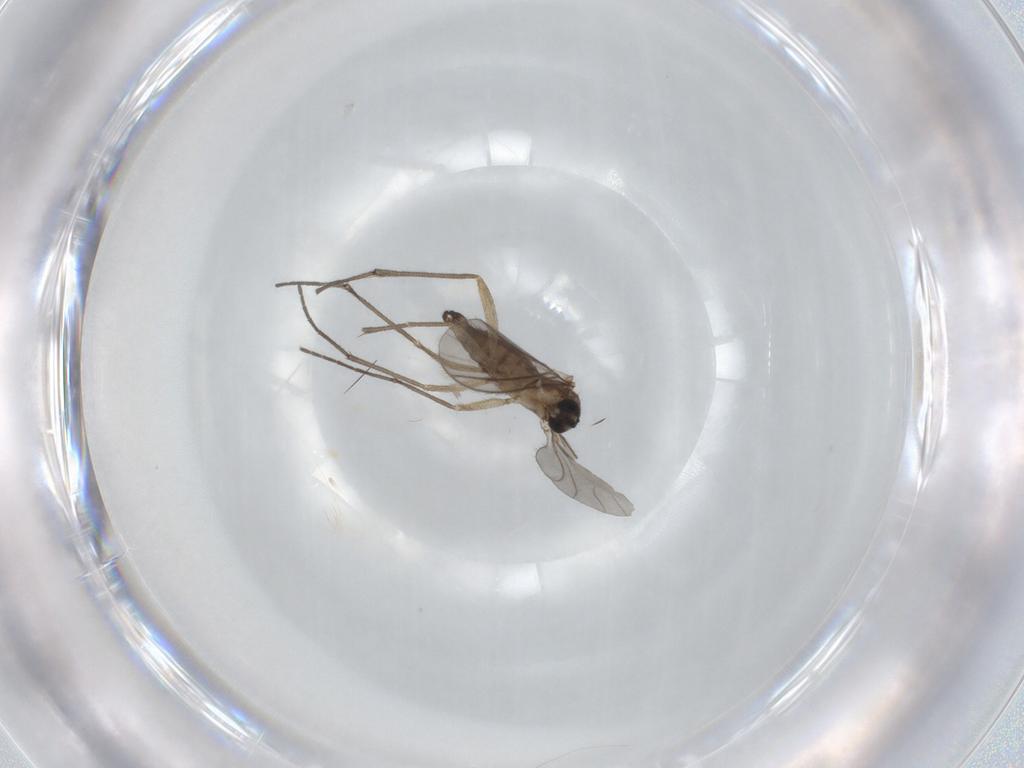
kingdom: Animalia
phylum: Arthropoda
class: Insecta
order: Diptera
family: Sciaridae
